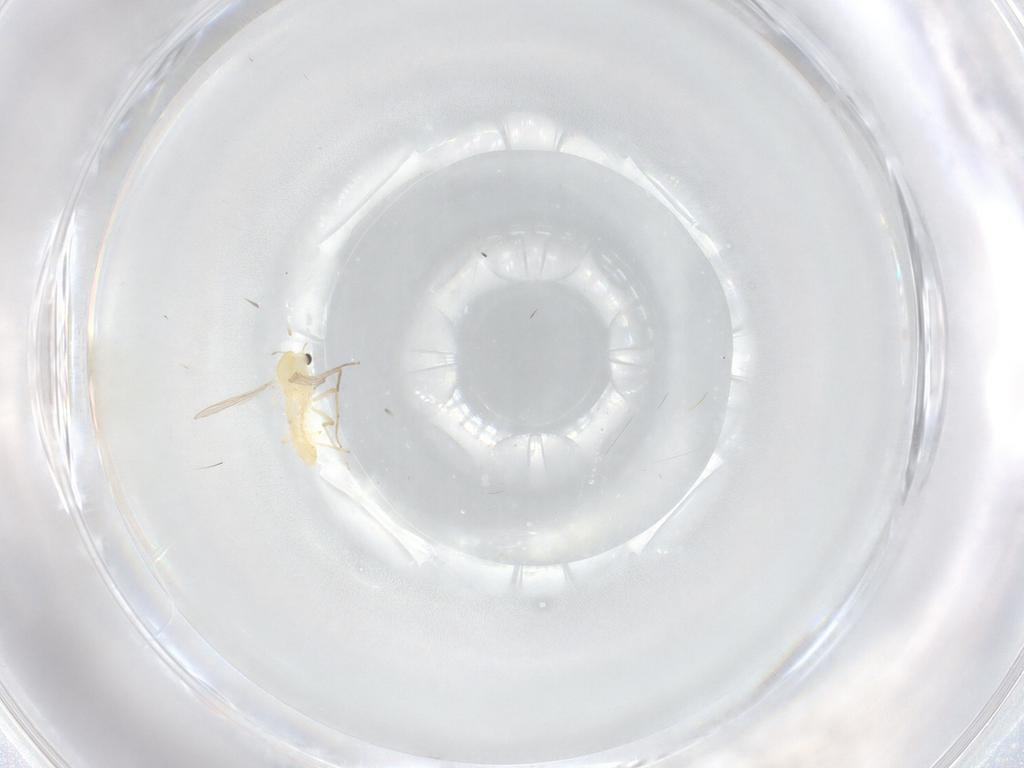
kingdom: Animalia
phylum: Arthropoda
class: Insecta
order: Diptera
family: Chironomidae
